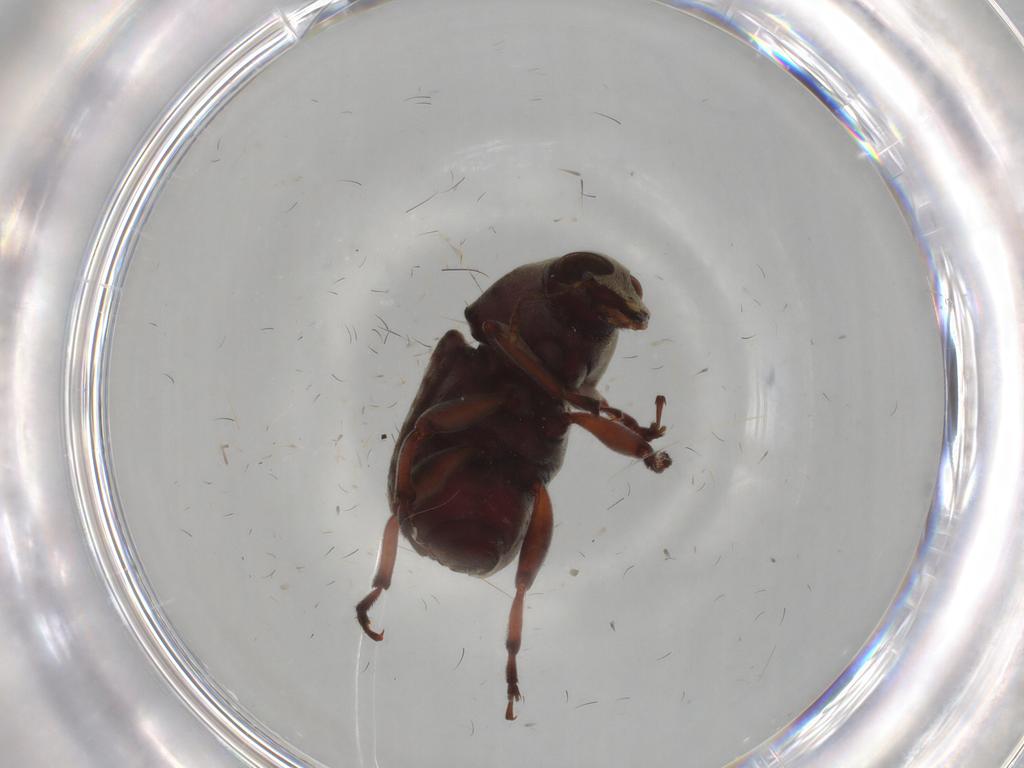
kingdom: Animalia
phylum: Arthropoda
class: Insecta
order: Coleoptera
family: Anthribidae
